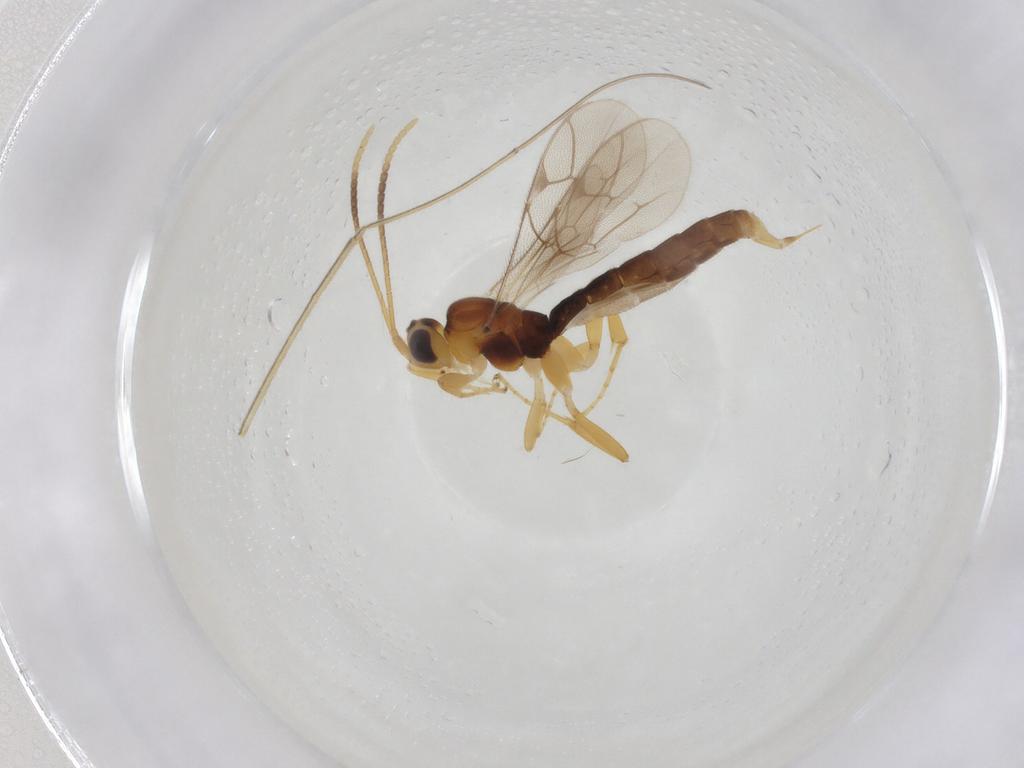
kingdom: Animalia
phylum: Arthropoda
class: Insecta
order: Hymenoptera
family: Ichneumonidae
